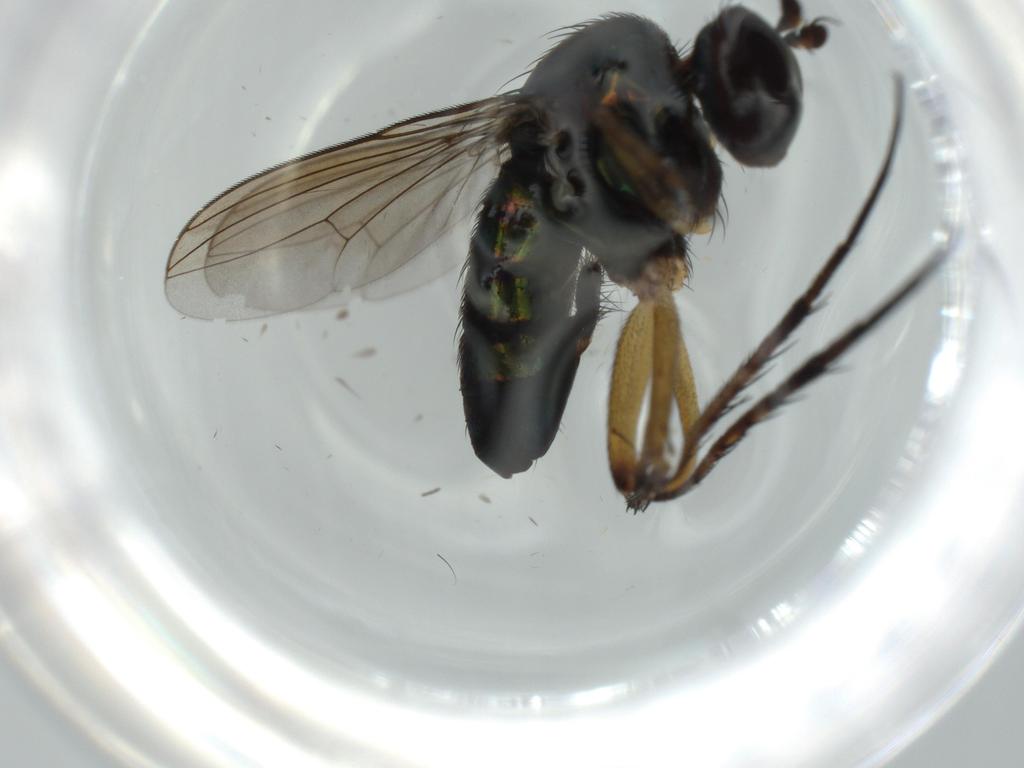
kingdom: Animalia
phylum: Arthropoda
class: Insecta
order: Diptera
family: Dolichopodidae
